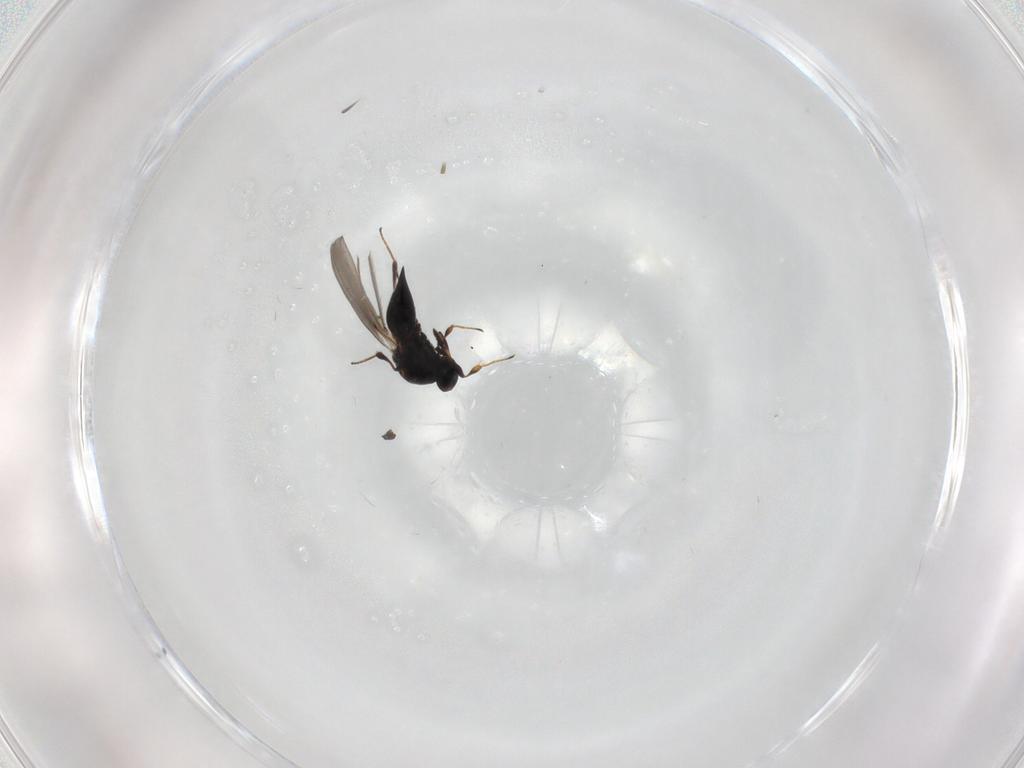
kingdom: Animalia
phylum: Arthropoda
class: Insecta
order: Hymenoptera
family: Platygastridae
